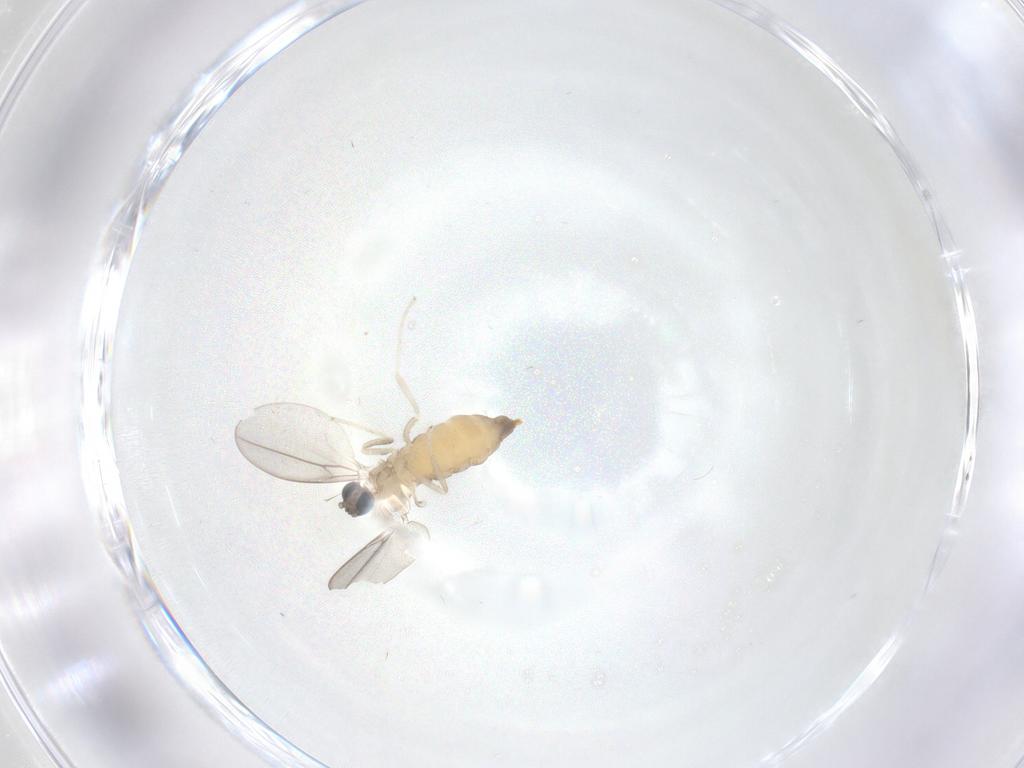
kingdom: Animalia
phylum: Arthropoda
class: Insecta
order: Diptera
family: Cecidomyiidae
